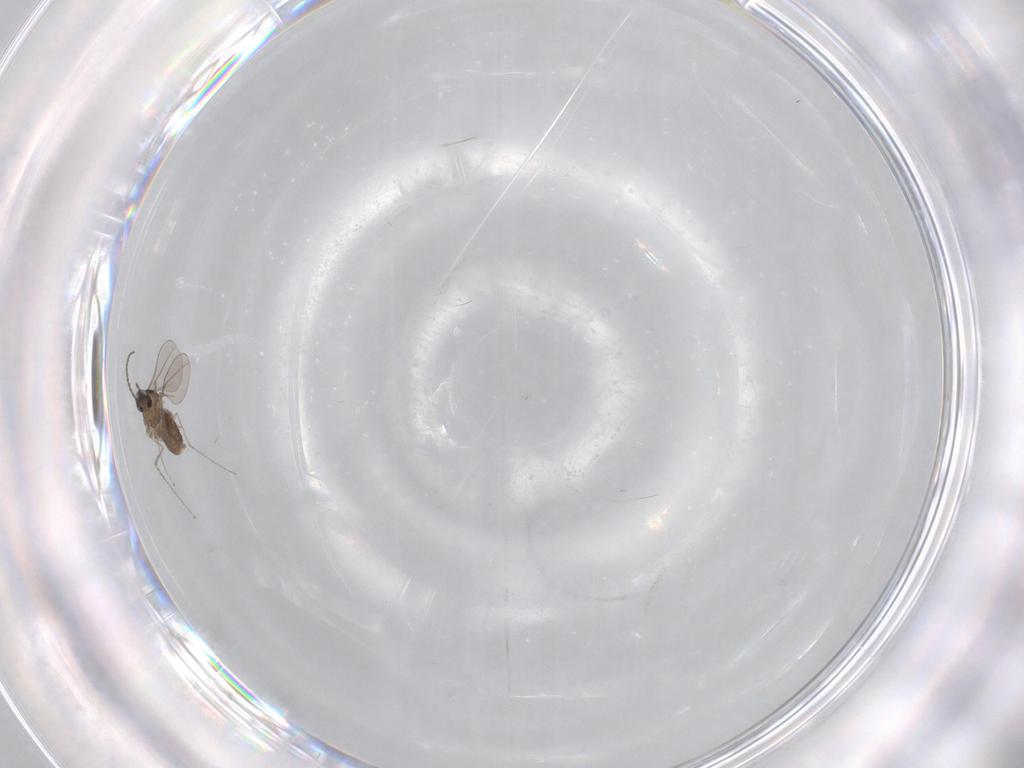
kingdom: Animalia
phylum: Arthropoda
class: Insecta
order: Diptera
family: Cecidomyiidae
